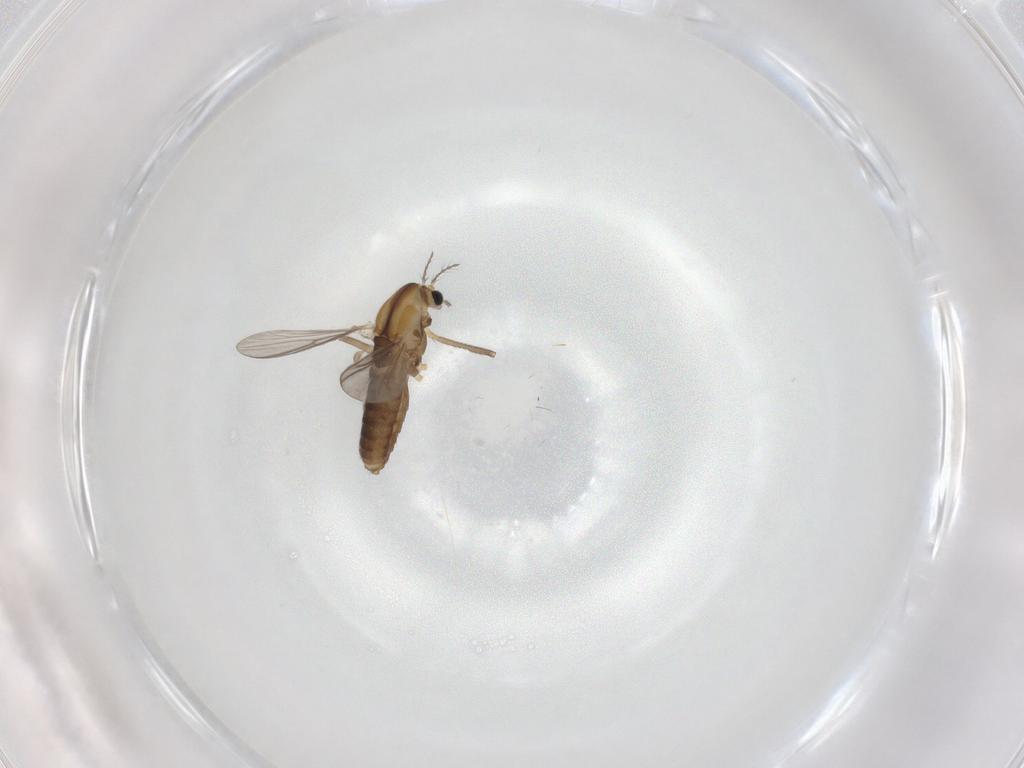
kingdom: Animalia
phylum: Arthropoda
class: Insecta
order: Diptera
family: Chironomidae
